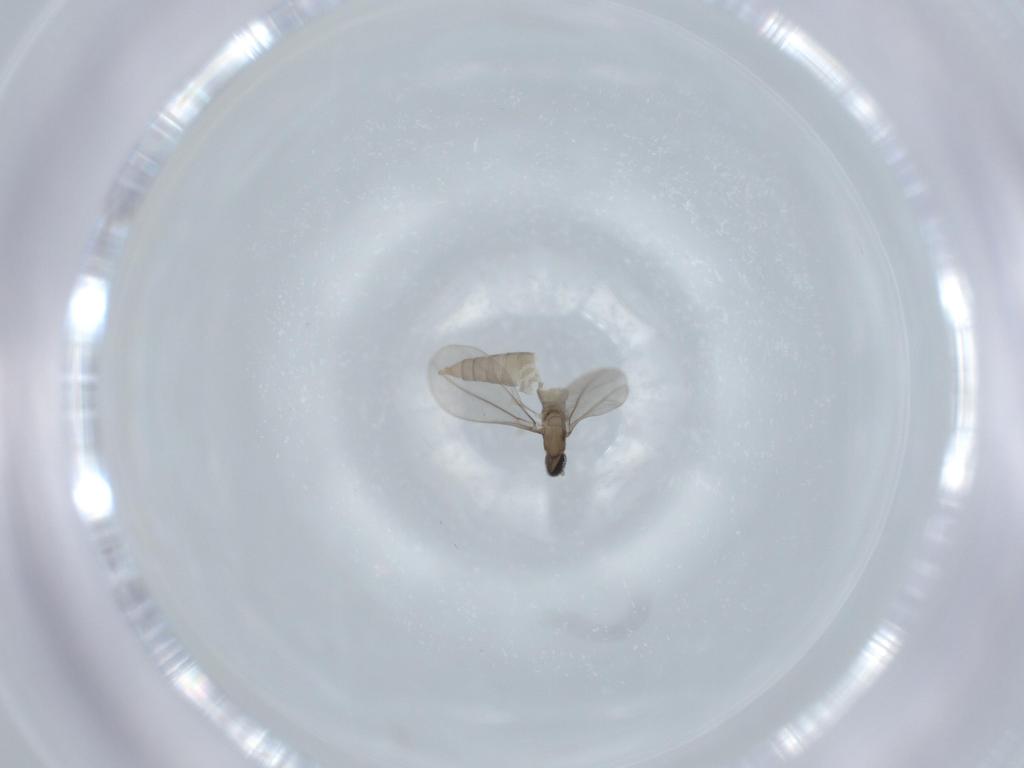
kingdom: Animalia
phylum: Arthropoda
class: Insecta
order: Diptera
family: Cecidomyiidae
